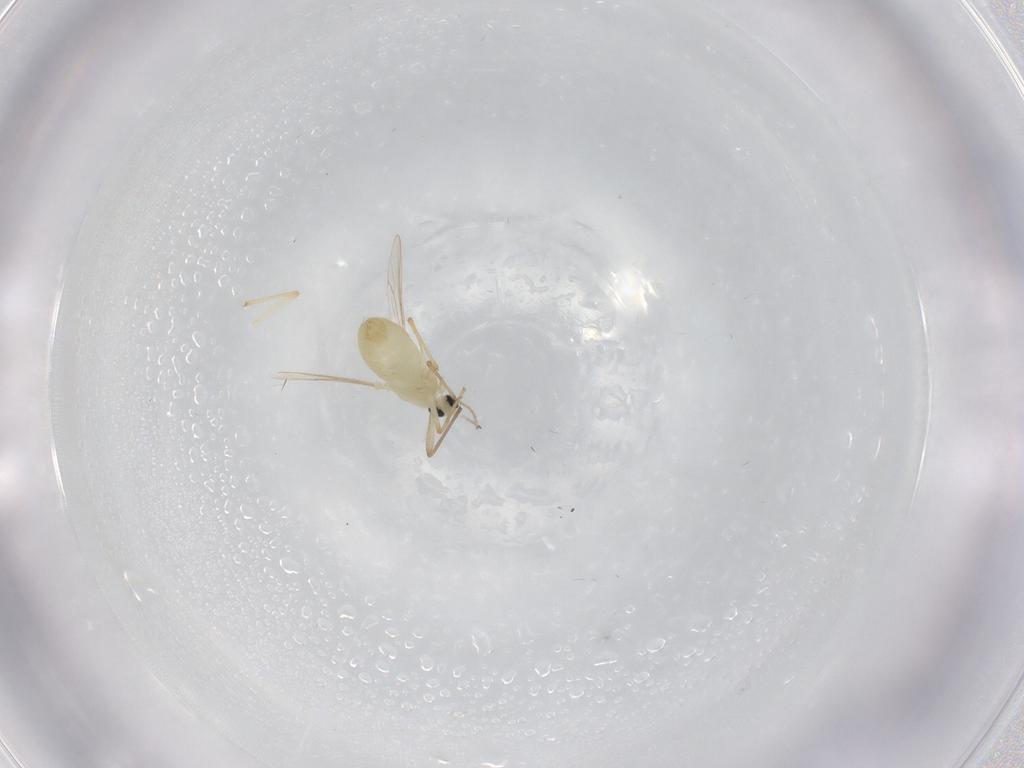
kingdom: Animalia
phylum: Arthropoda
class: Insecta
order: Diptera
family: Chironomidae
